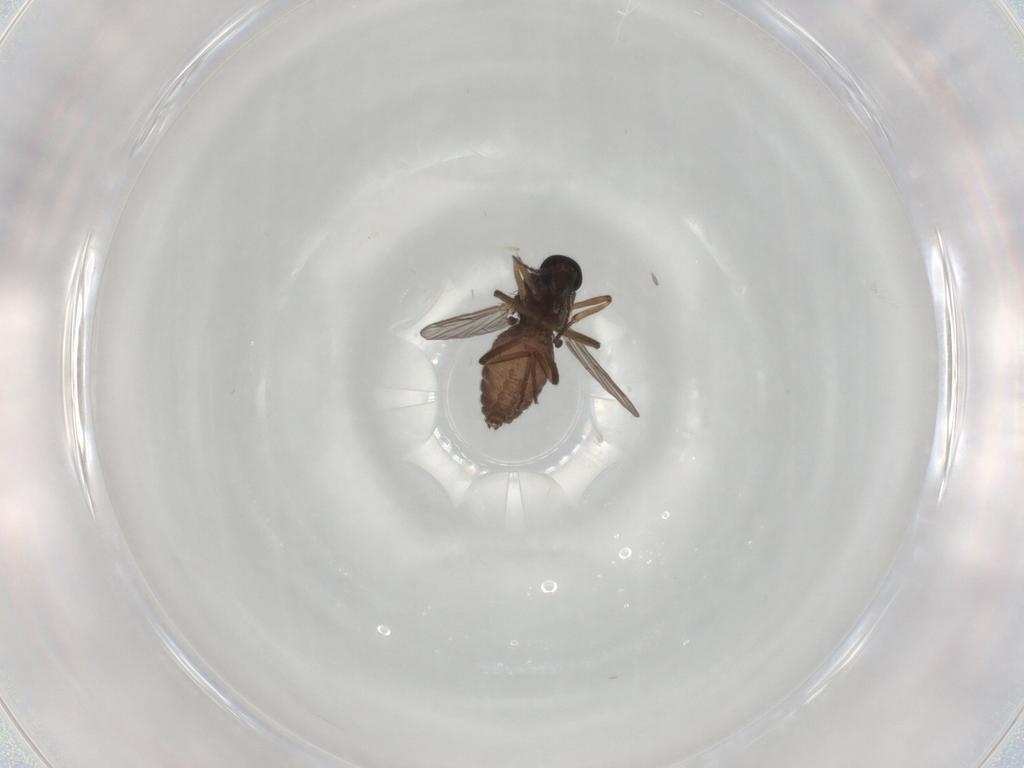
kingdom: Animalia
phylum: Arthropoda
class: Insecta
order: Diptera
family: Ceratopogonidae
